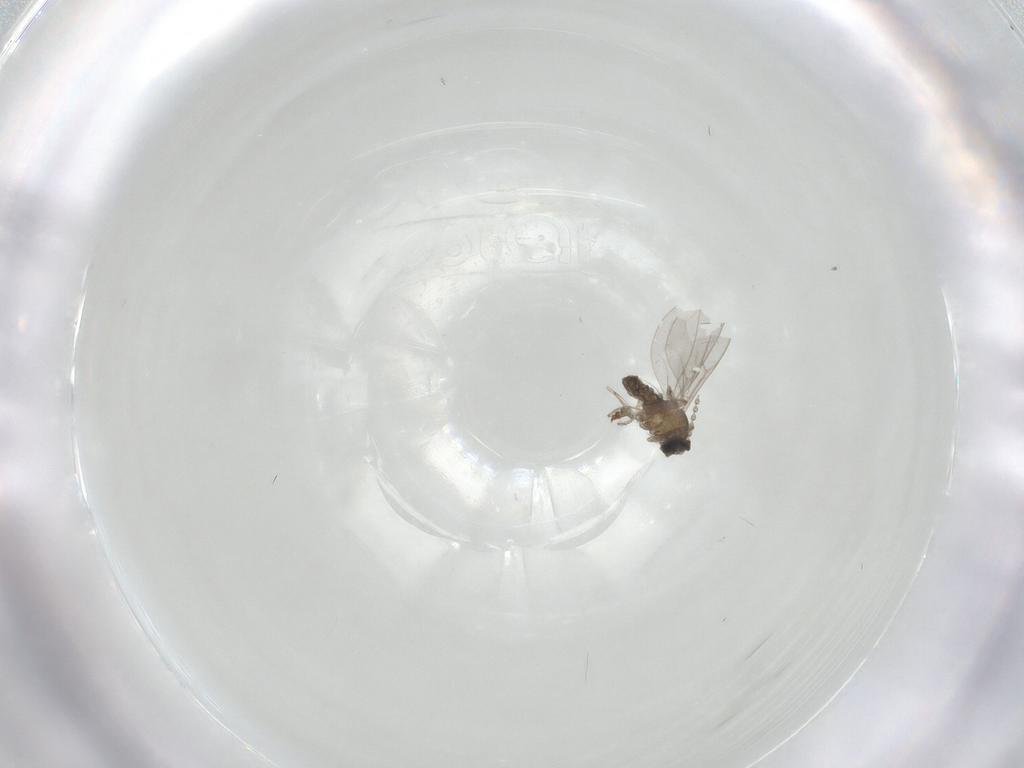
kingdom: Animalia
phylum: Arthropoda
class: Insecta
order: Diptera
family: Cecidomyiidae
